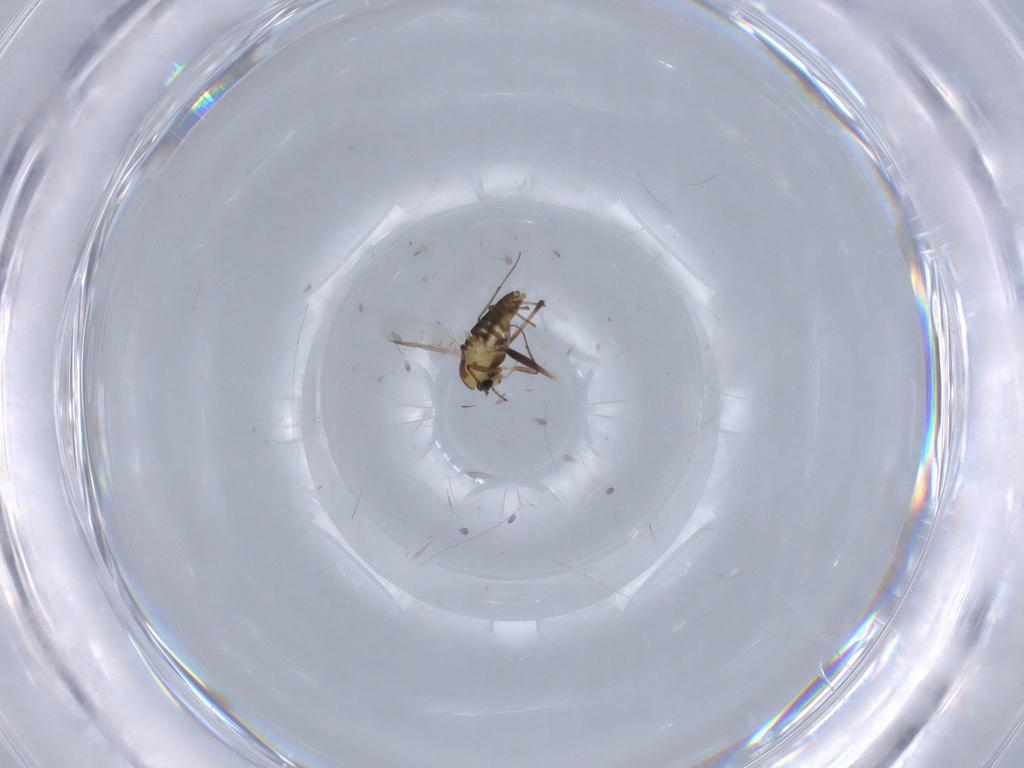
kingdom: Animalia
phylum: Arthropoda
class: Insecta
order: Diptera
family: Chironomidae
